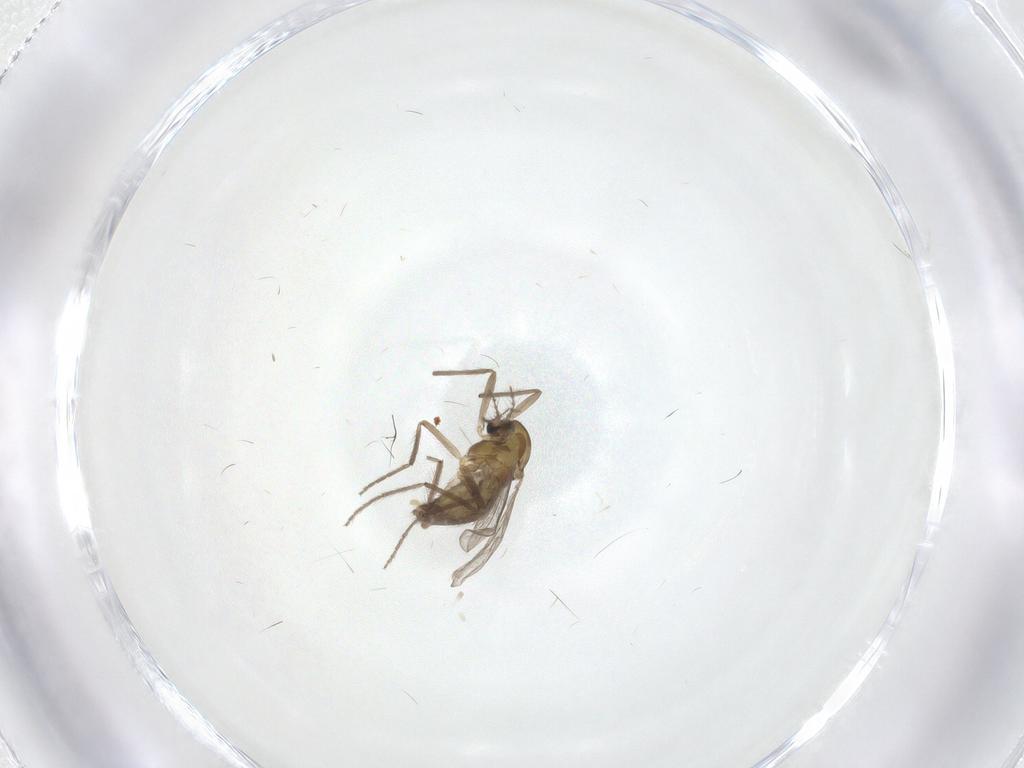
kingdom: Animalia
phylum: Arthropoda
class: Insecta
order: Diptera
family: Chironomidae
